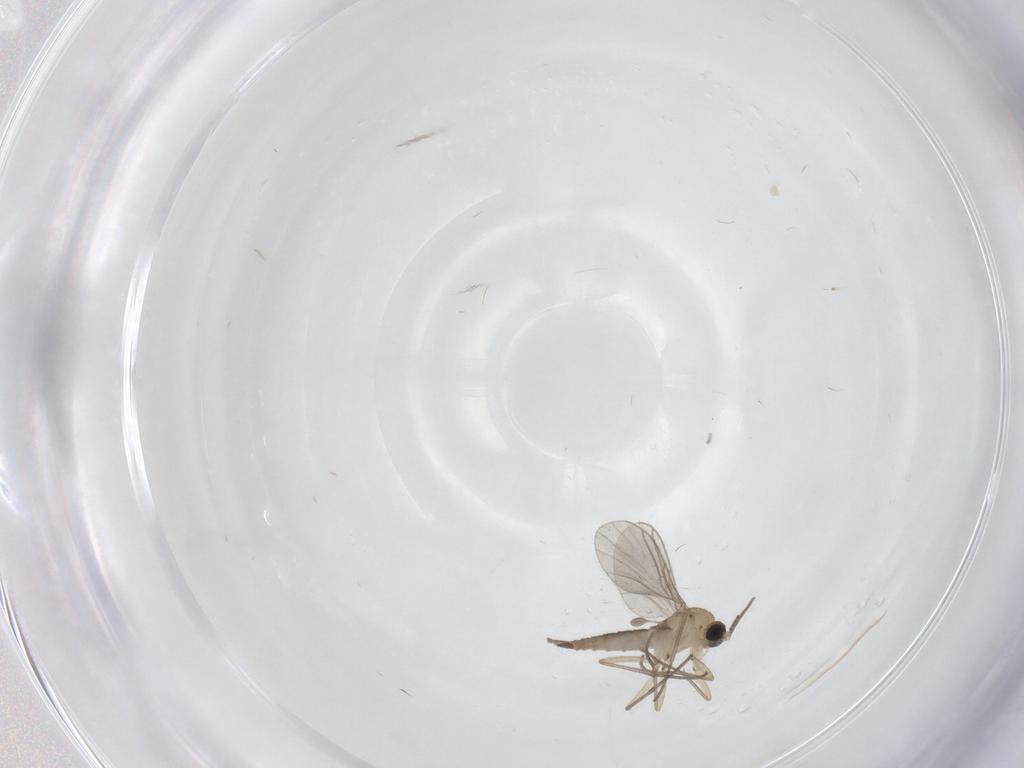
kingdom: Animalia
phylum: Arthropoda
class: Insecta
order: Diptera
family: Sciaridae
